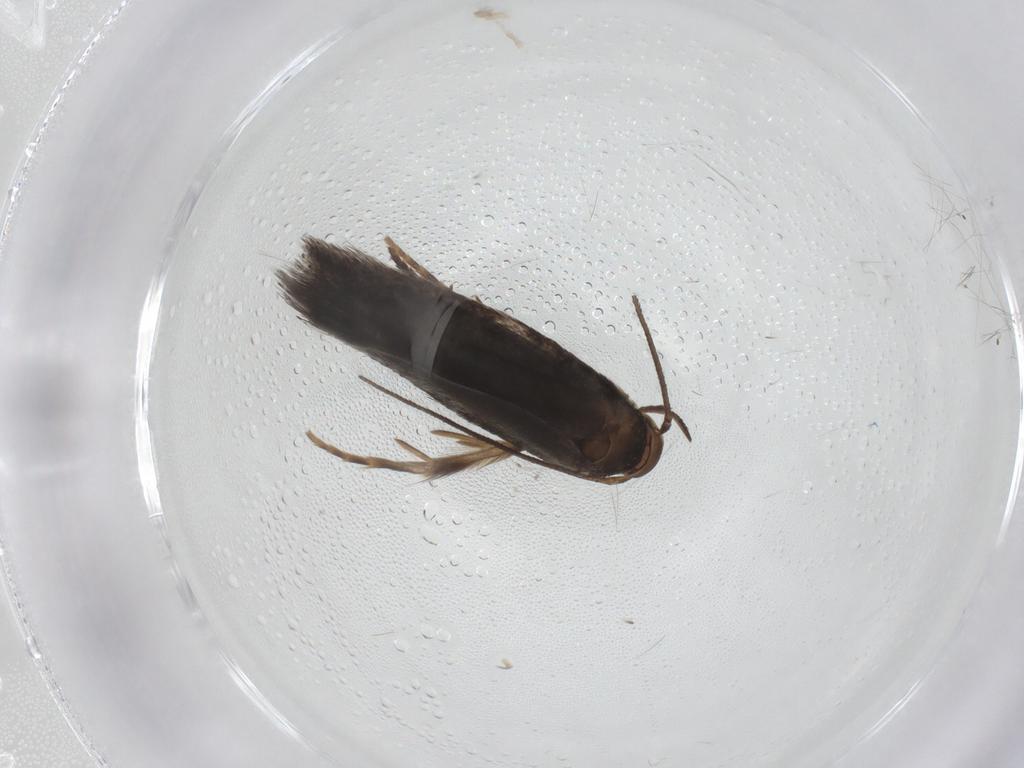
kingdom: Animalia
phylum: Arthropoda
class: Insecta
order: Lepidoptera
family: Elachistidae
